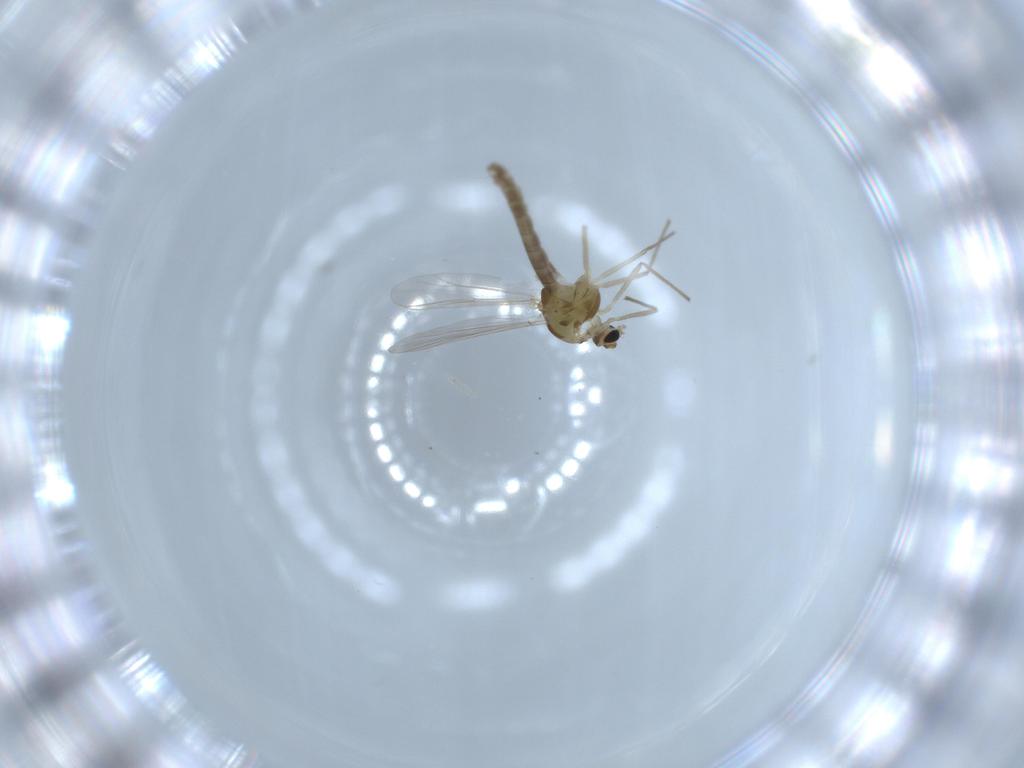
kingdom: Animalia
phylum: Arthropoda
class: Insecta
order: Diptera
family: Chironomidae
